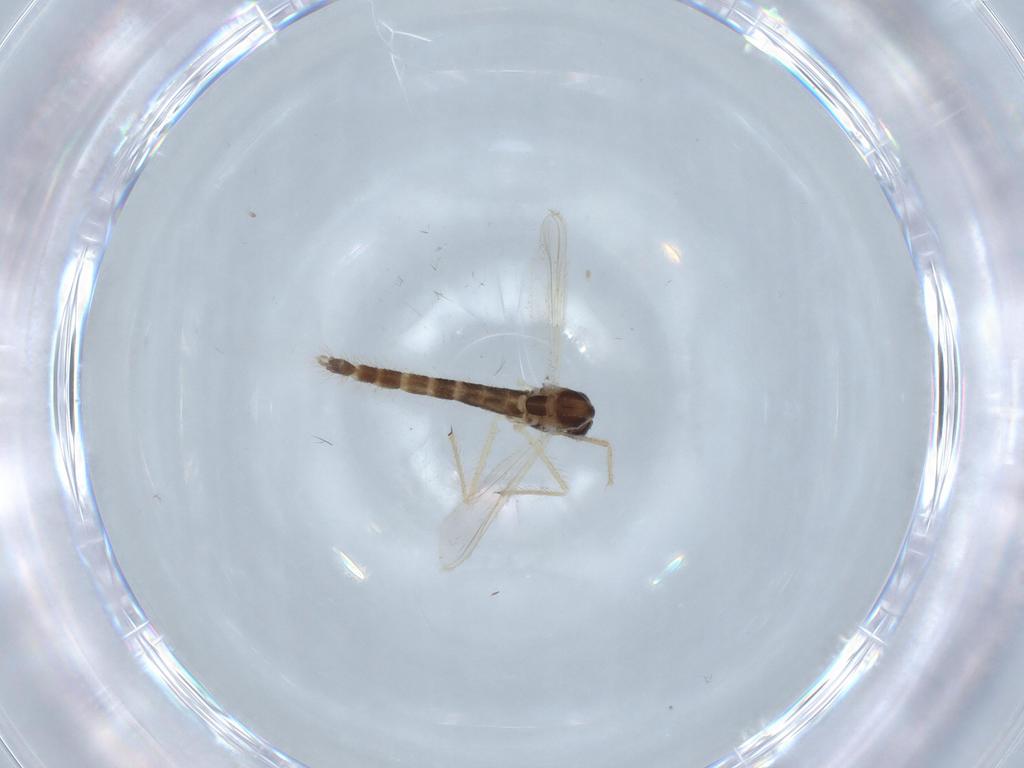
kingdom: Animalia
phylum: Arthropoda
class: Insecta
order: Diptera
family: Chironomidae
